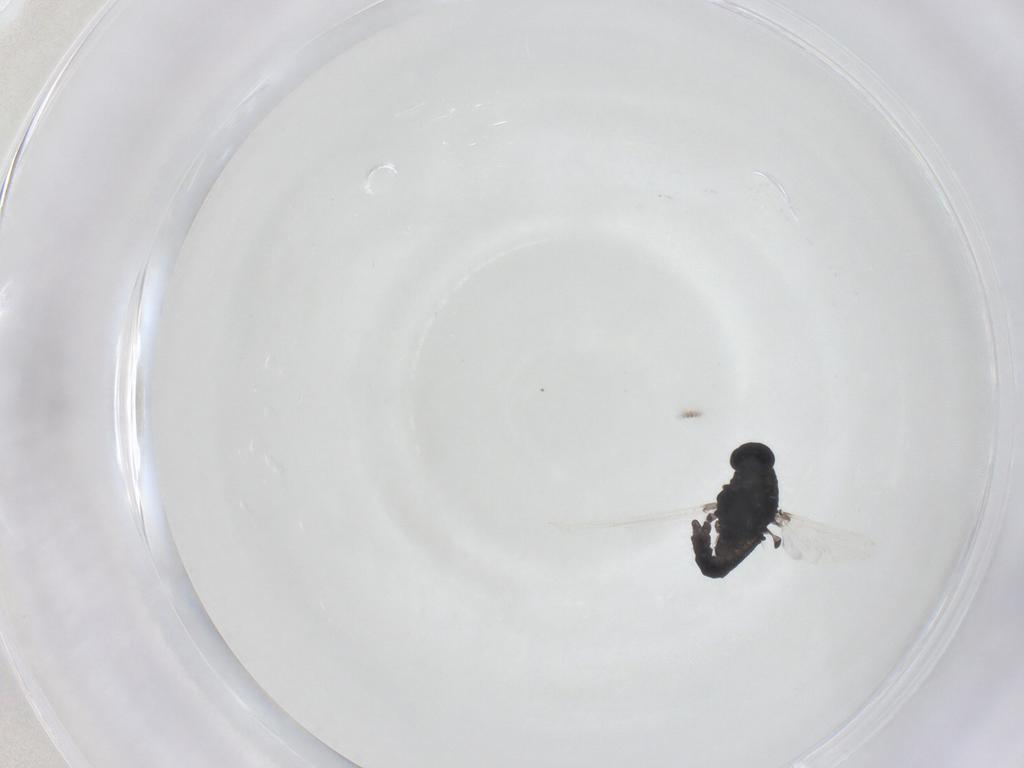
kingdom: Animalia
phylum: Arthropoda
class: Insecta
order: Diptera
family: Chironomidae
